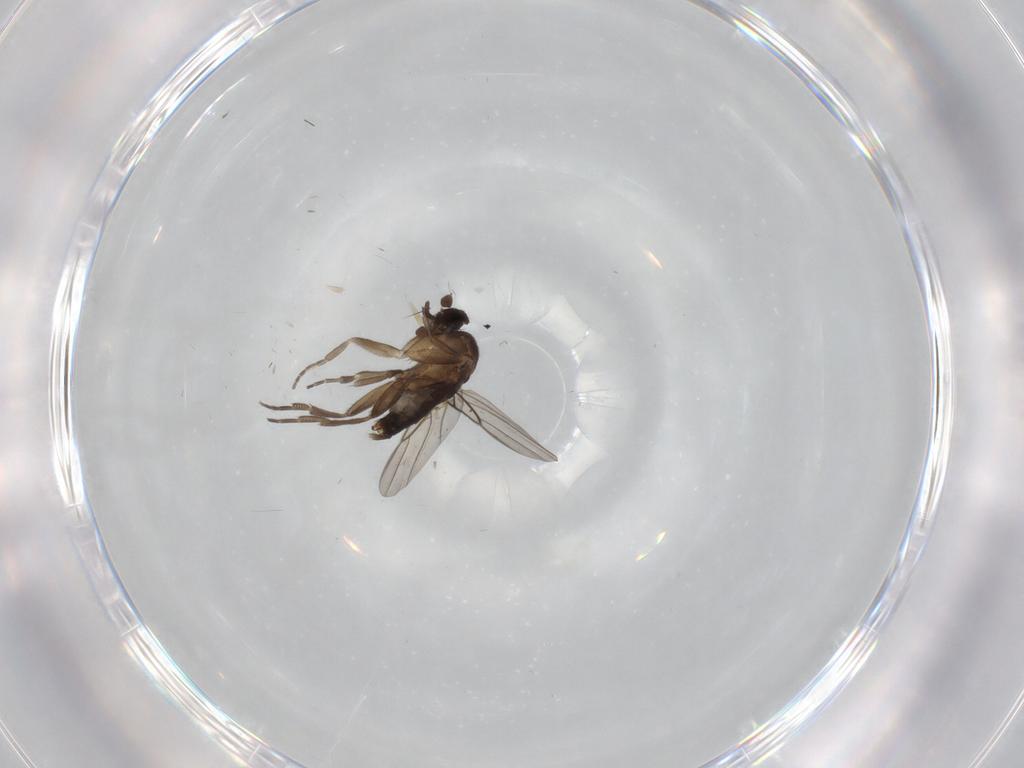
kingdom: Animalia
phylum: Arthropoda
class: Insecta
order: Diptera
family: Phoridae
